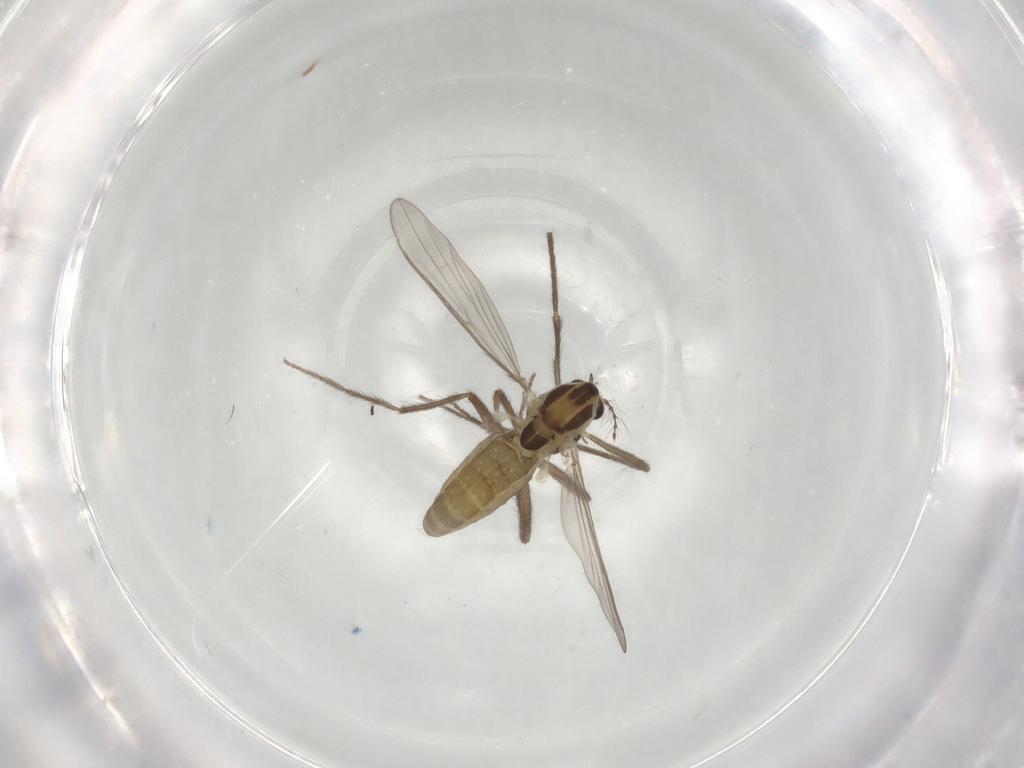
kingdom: Animalia
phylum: Arthropoda
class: Insecta
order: Diptera
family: Chironomidae
